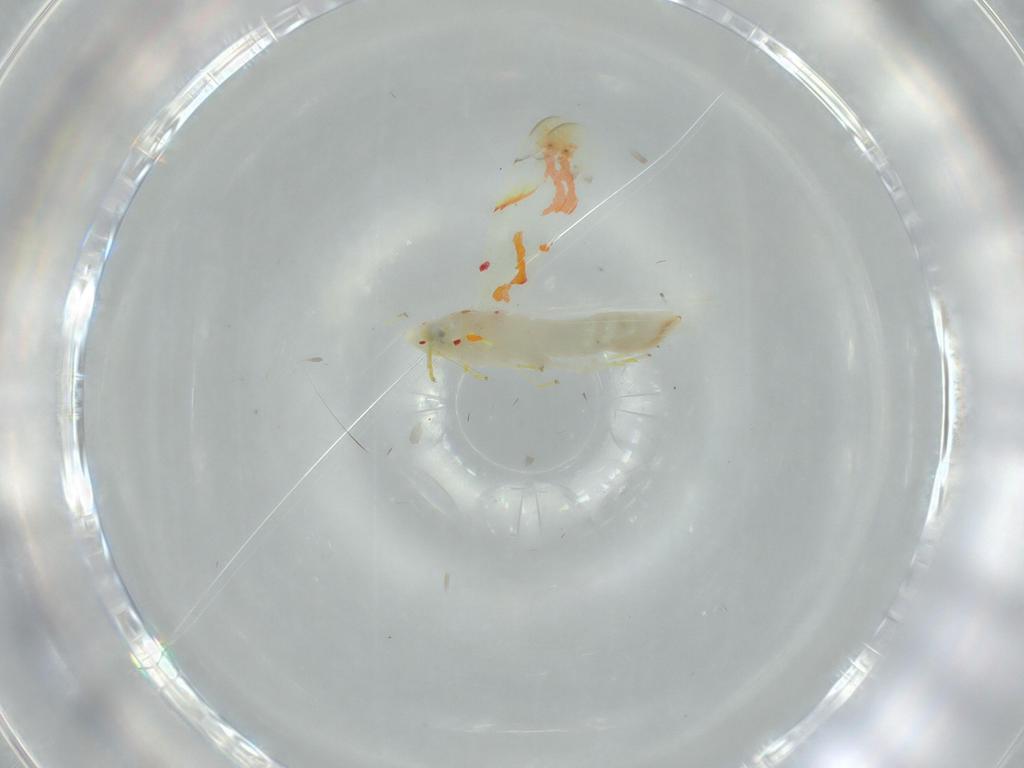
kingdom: Animalia
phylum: Arthropoda
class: Insecta
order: Hemiptera
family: Cicadellidae
